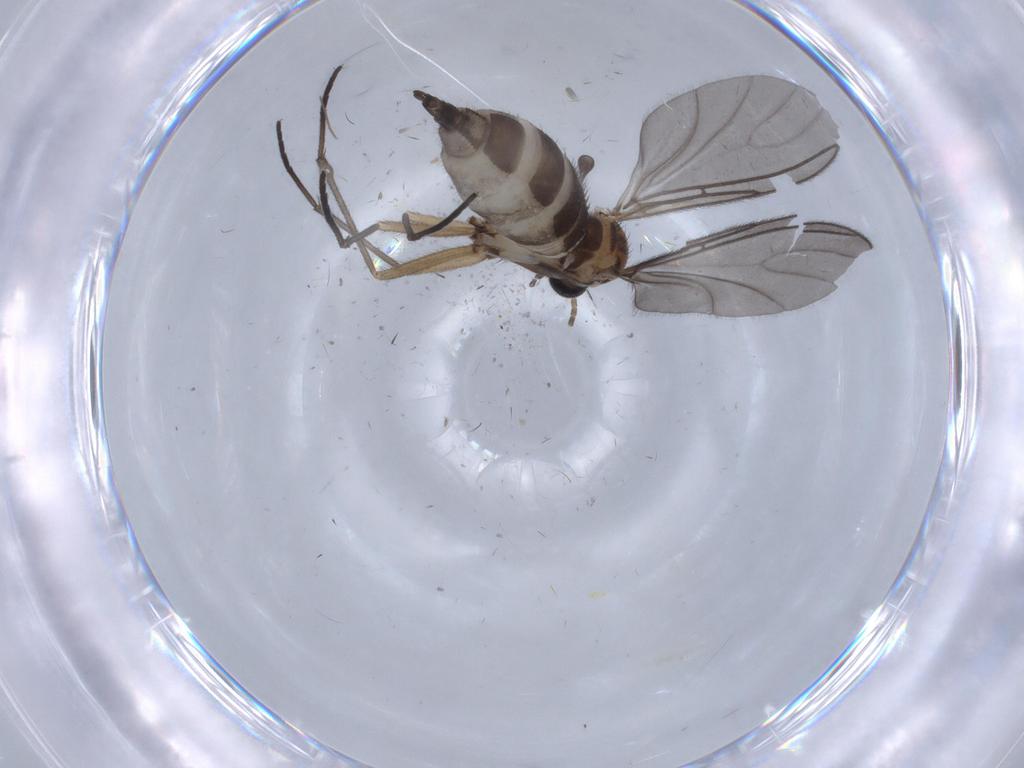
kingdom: Animalia
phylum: Arthropoda
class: Insecta
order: Diptera
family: Sciaridae
